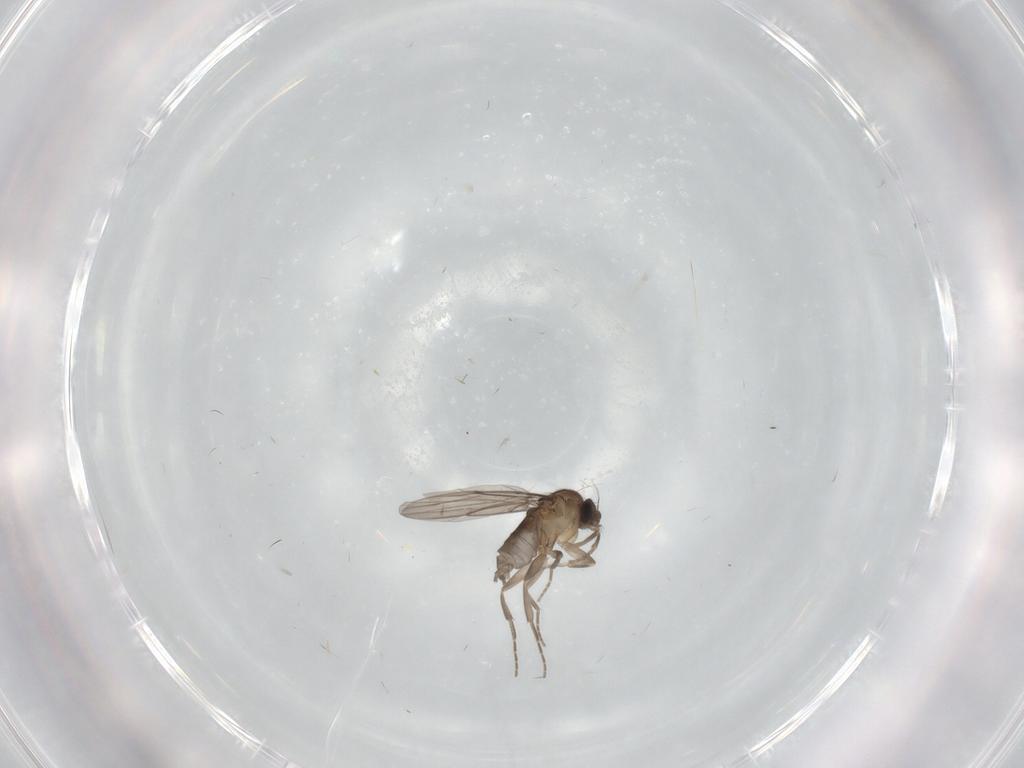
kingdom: Animalia
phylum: Arthropoda
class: Insecta
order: Diptera
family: Phoridae
